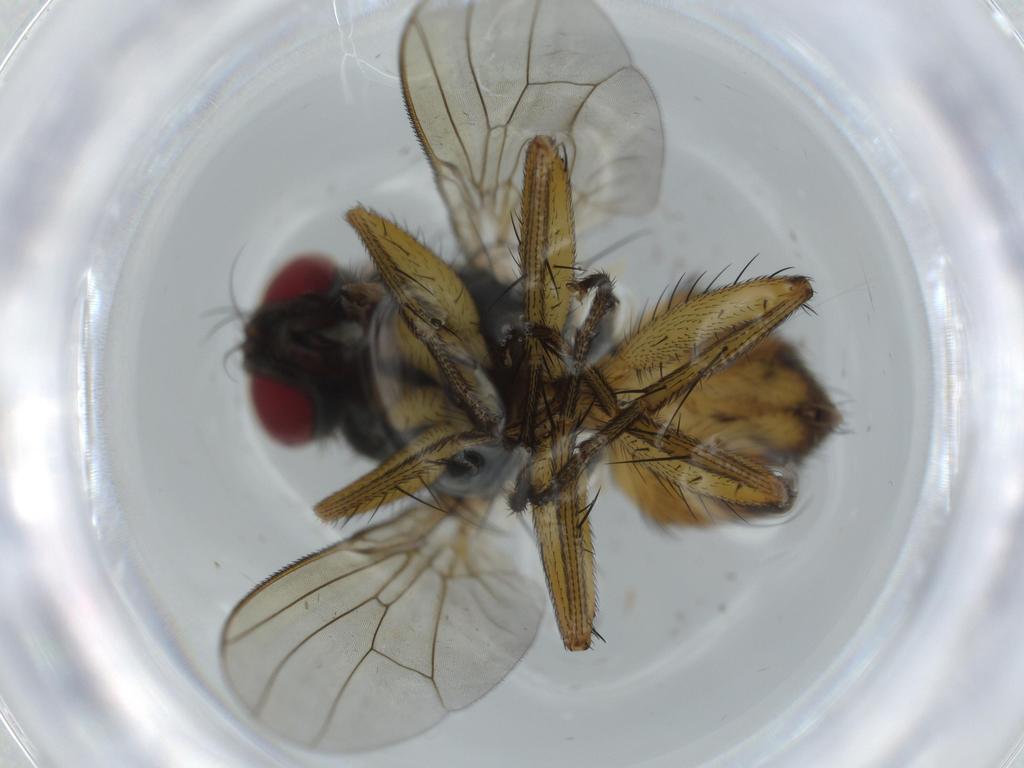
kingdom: Animalia
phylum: Arthropoda
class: Insecta
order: Diptera
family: Muscidae
